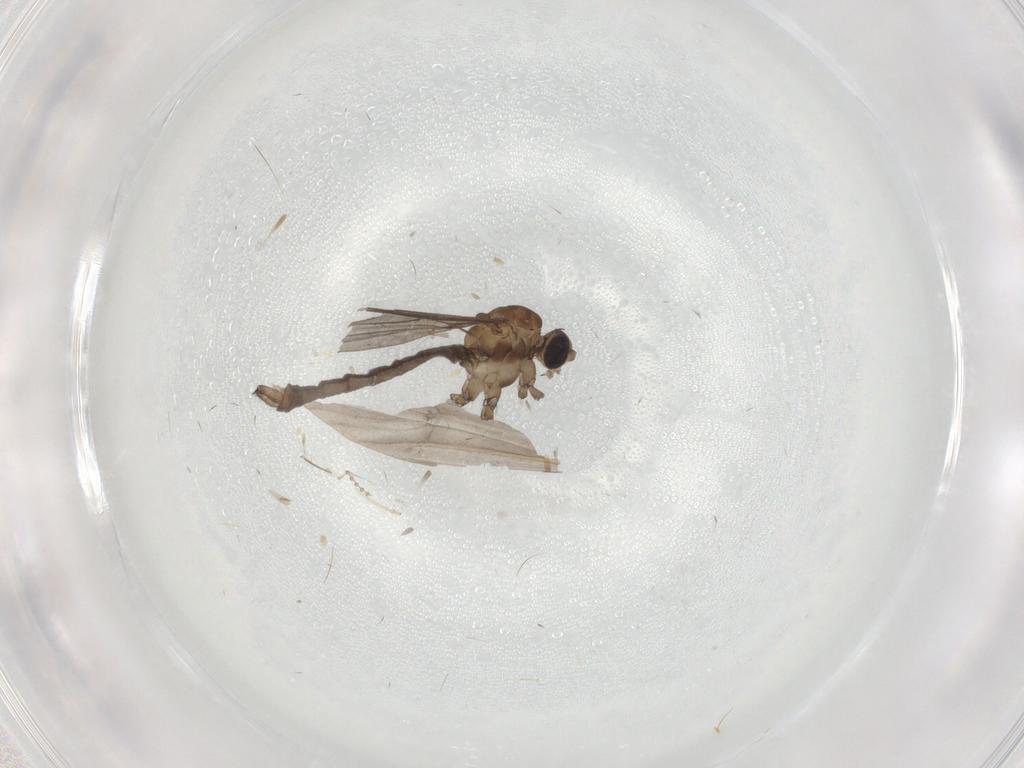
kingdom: Animalia
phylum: Arthropoda
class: Insecta
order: Diptera
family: Limoniidae
